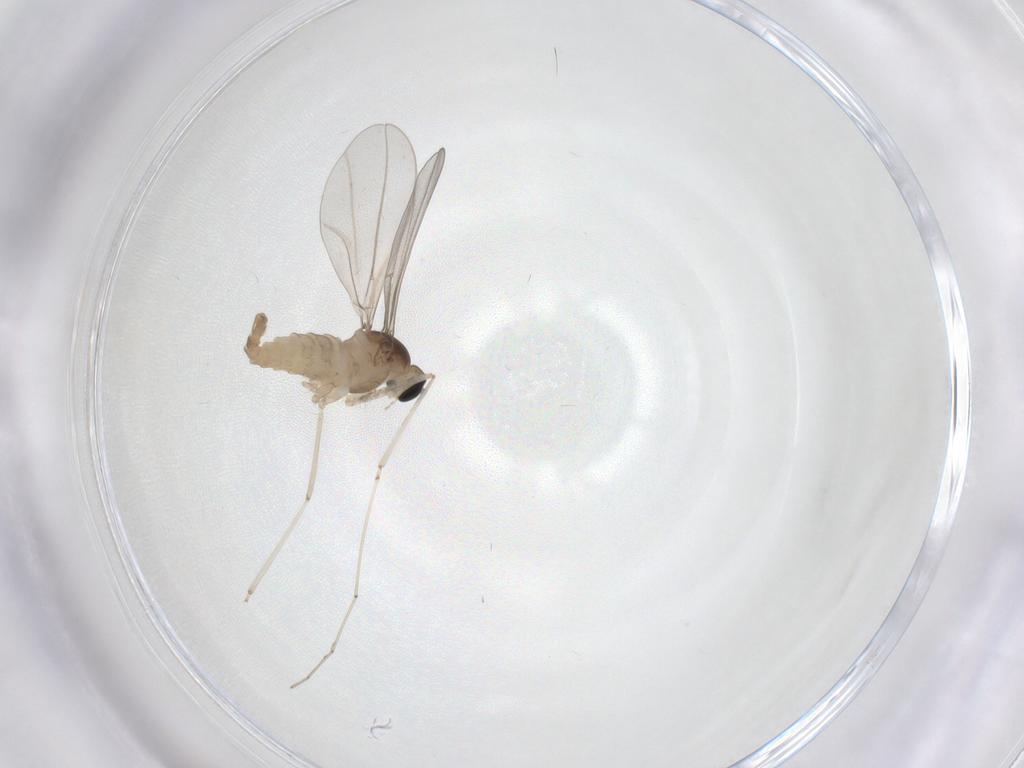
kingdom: Animalia
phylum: Arthropoda
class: Insecta
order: Diptera
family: Cecidomyiidae
